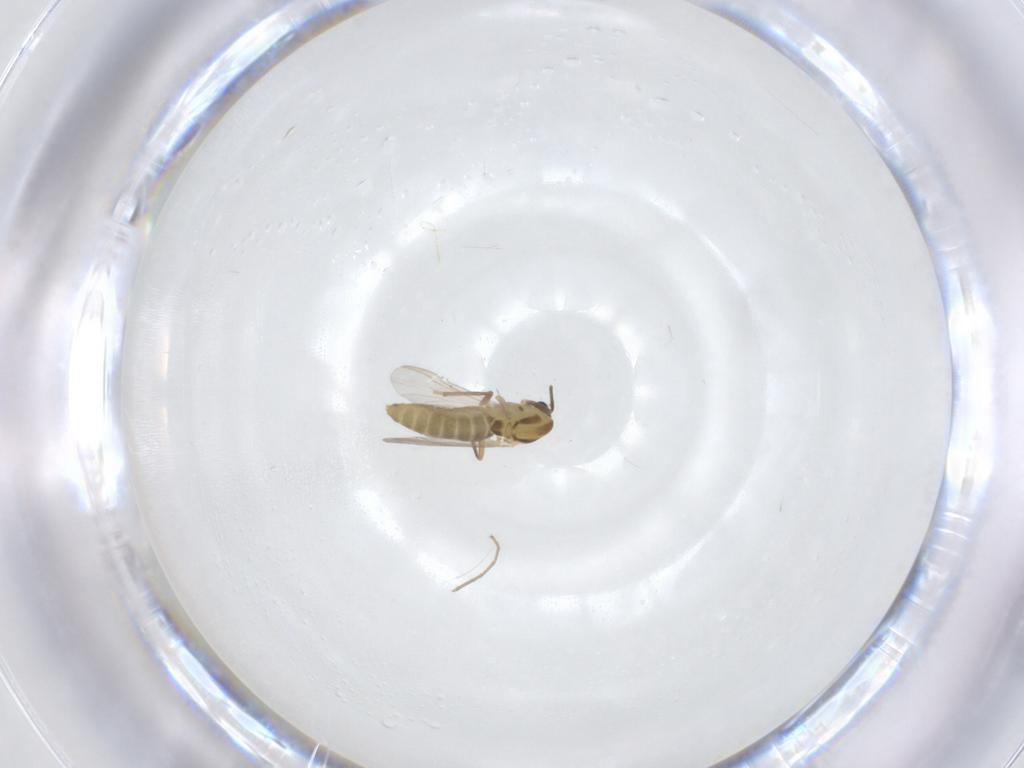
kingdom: Animalia
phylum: Arthropoda
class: Insecta
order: Diptera
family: Chironomidae
